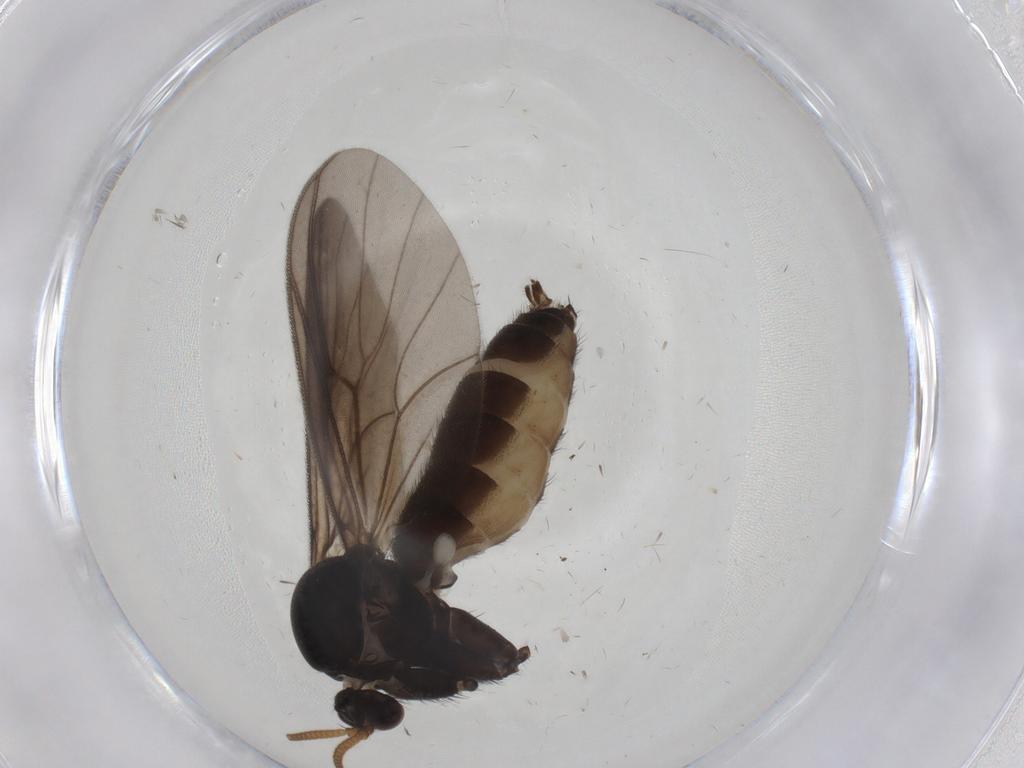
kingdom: Animalia
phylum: Arthropoda
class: Insecta
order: Diptera
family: Mycetophilidae
